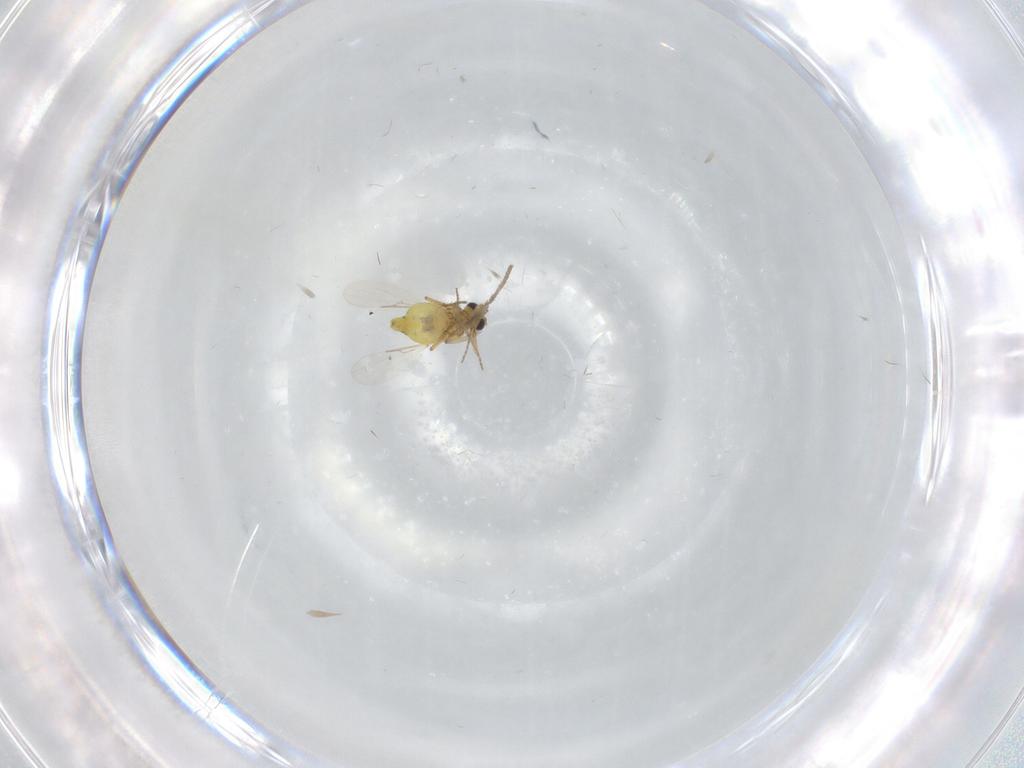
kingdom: Animalia
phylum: Arthropoda
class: Insecta
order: Diptera
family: Ceratopogonidae
